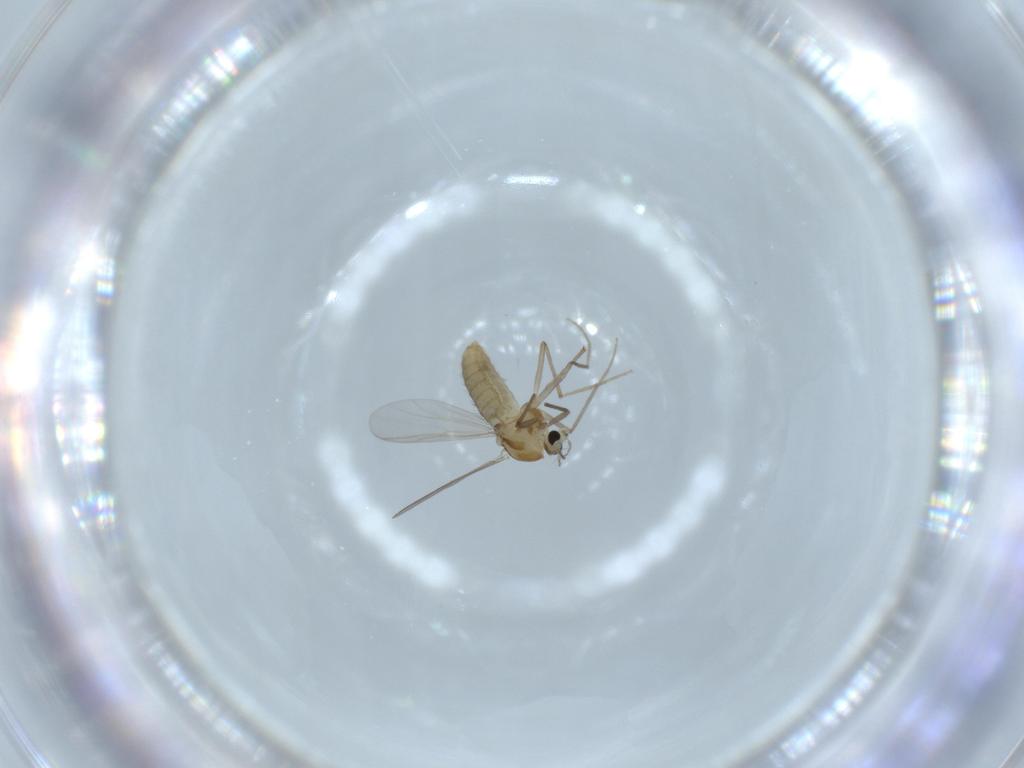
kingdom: Animalia
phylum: Arthropoda
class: Insecta
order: Diptera
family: Chironomidae
